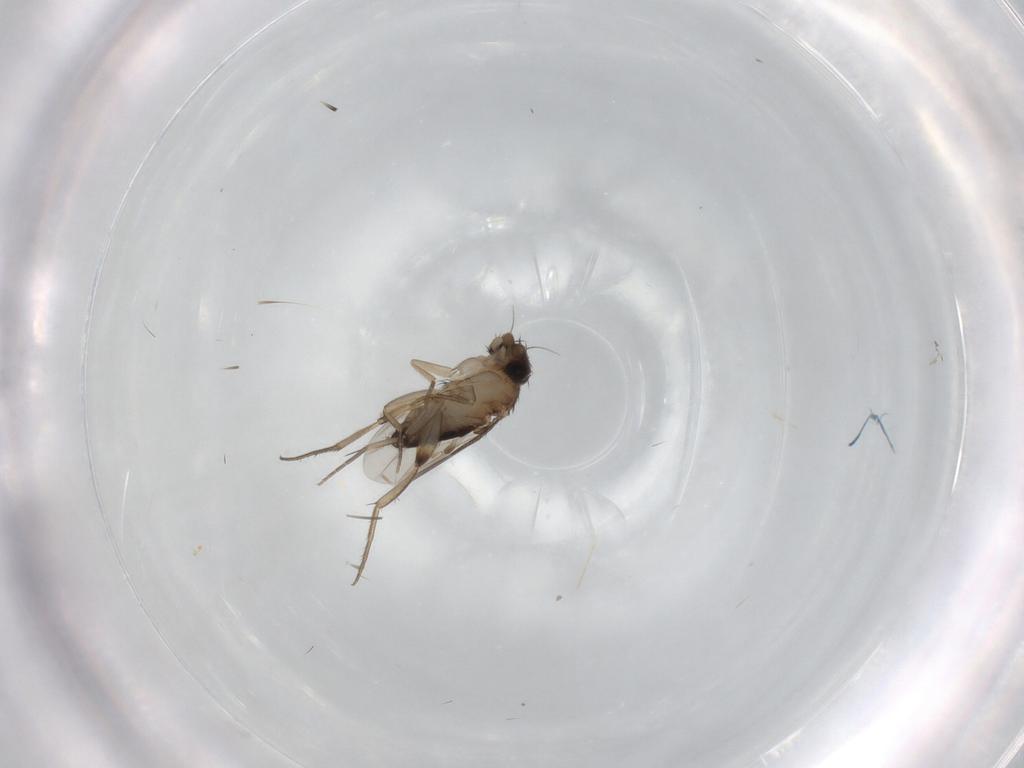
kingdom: Animalia
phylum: Arthropoda
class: Insecta
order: Diptera
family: Phoridae
